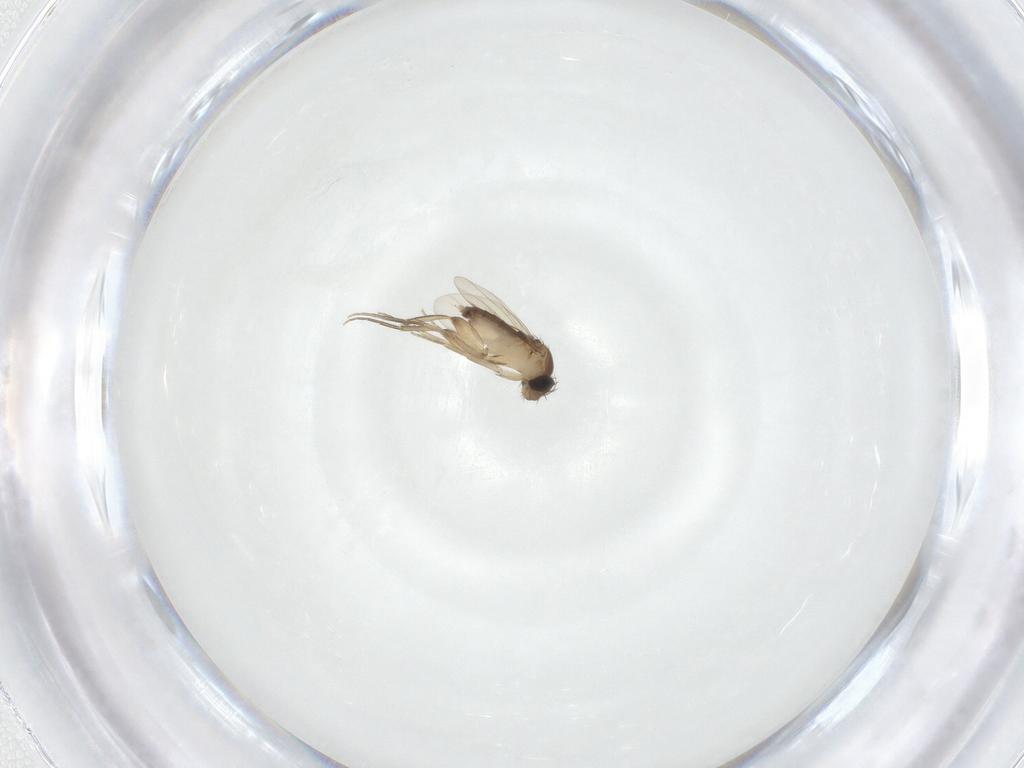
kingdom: Animalia
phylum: Arthropoda
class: Insecta
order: Diptera
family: Phoridae
